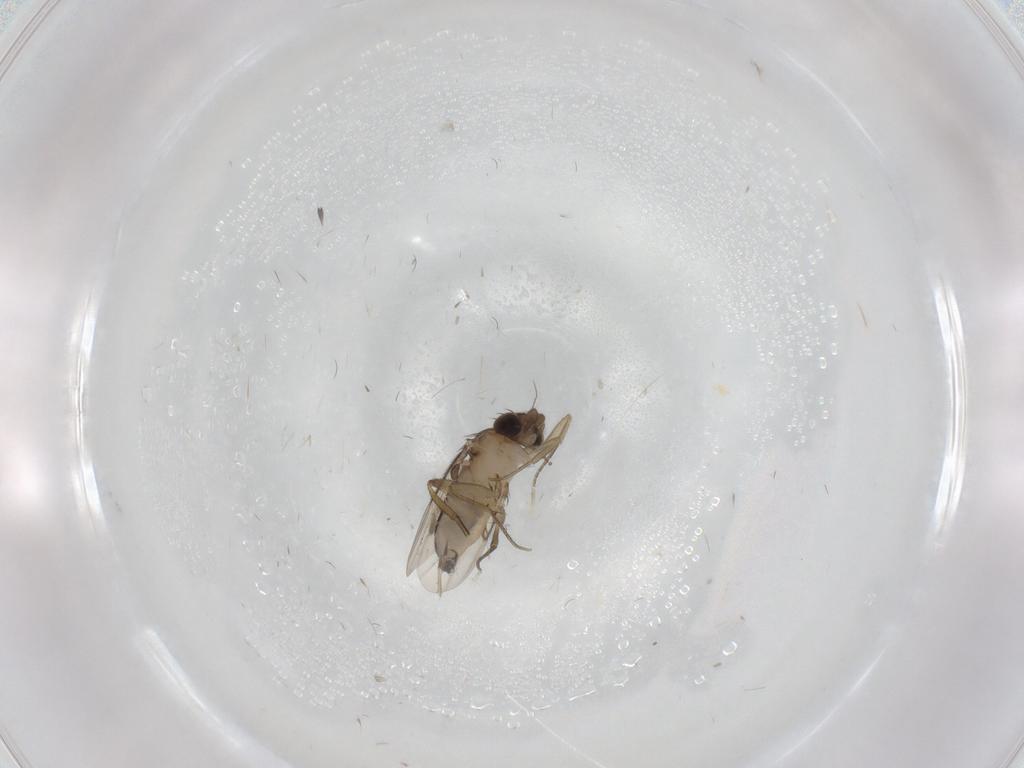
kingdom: Animalia
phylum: Arthropoda
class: Insecta
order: Diptera
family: Phoridae
